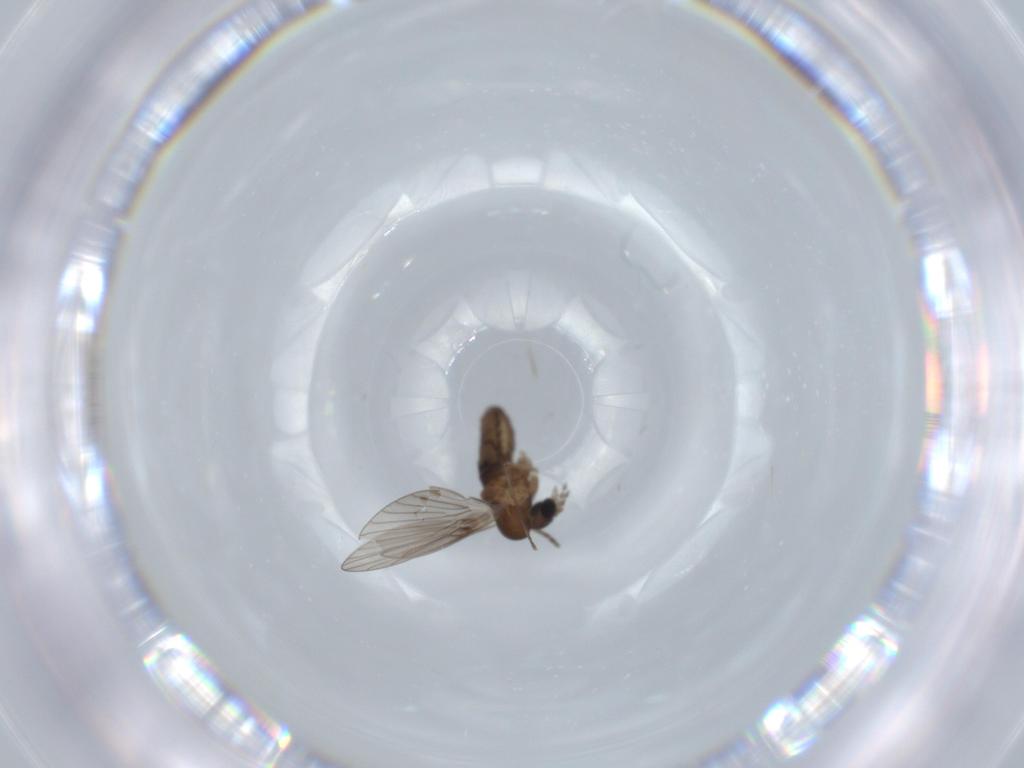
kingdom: Animalia
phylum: Arthropoda
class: Insecta
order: Diptera
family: Psychodidae
